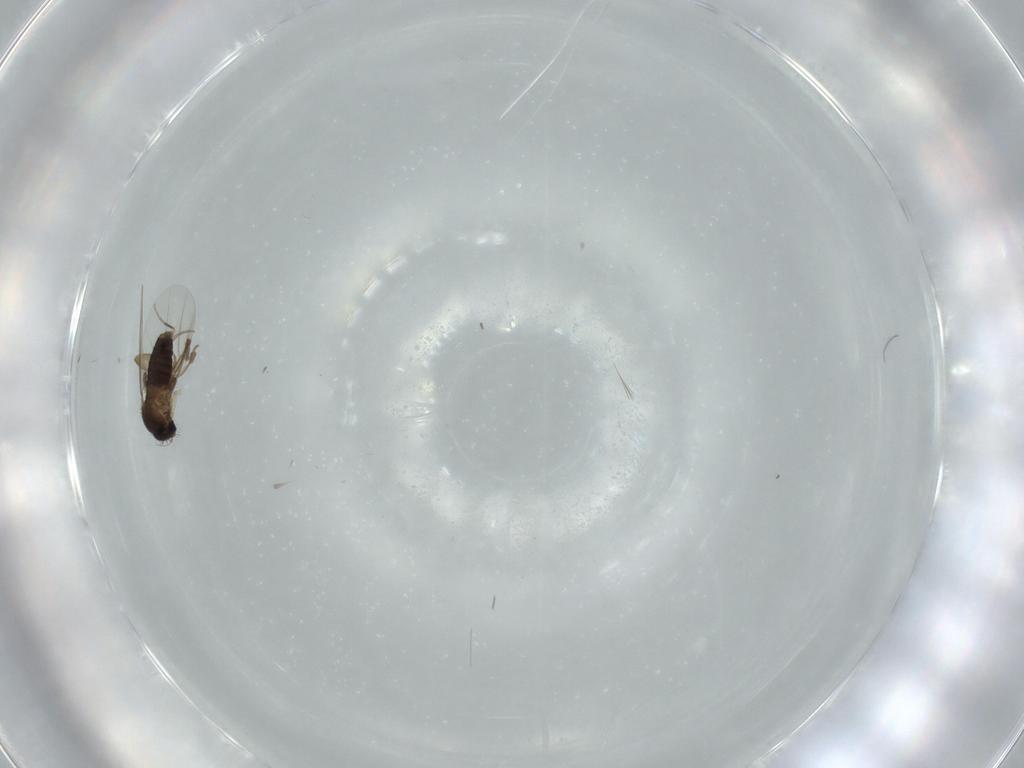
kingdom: Animalia
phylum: Arthropoda
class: Insecta
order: Diptera
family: Phoridae
